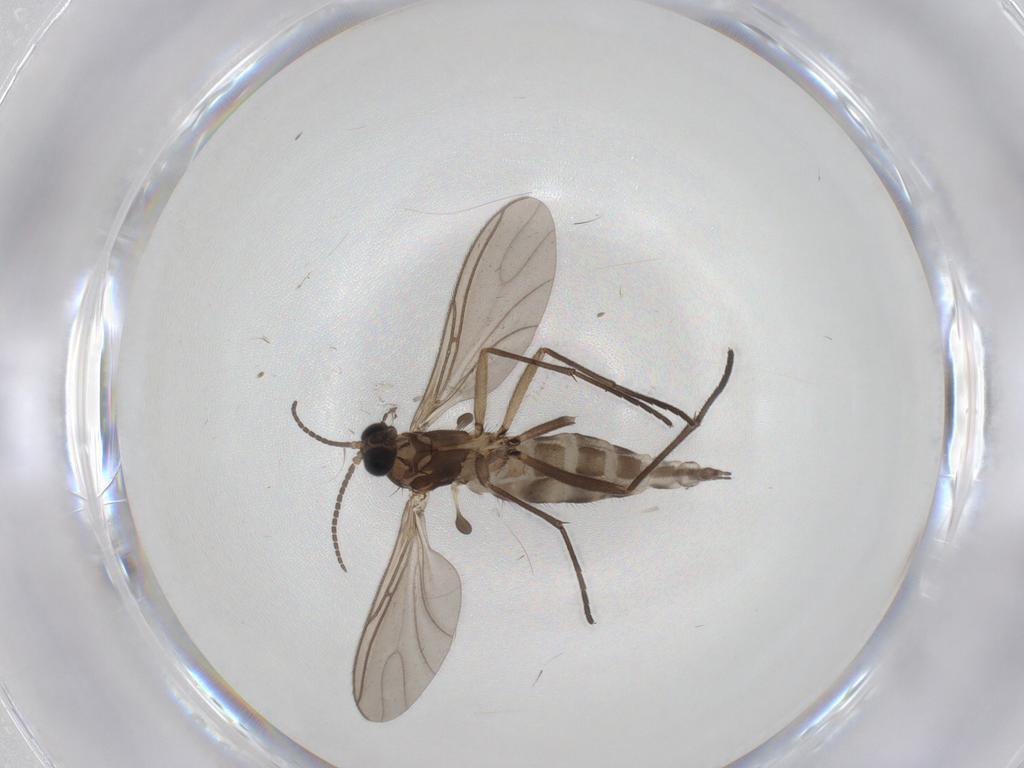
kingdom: Animalia
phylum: Arthropoda
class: Insecta
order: Diptera
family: Sciaridae
